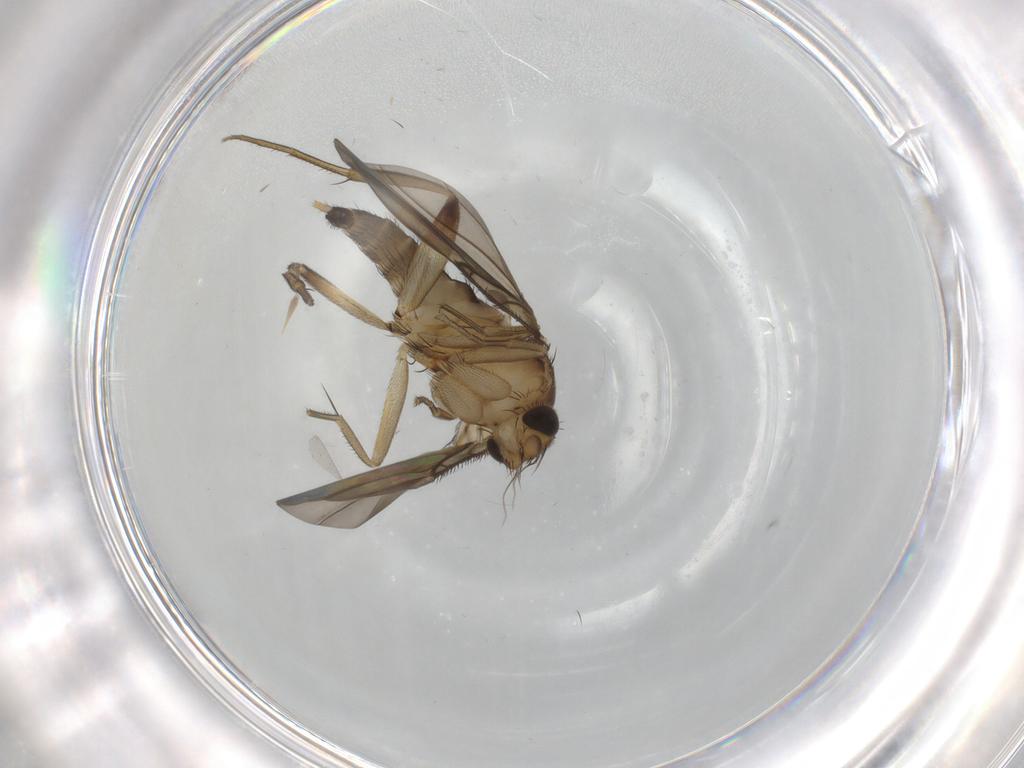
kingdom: Animalia
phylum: Arthropoda
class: Insecta
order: Diptera
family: Phoridae
